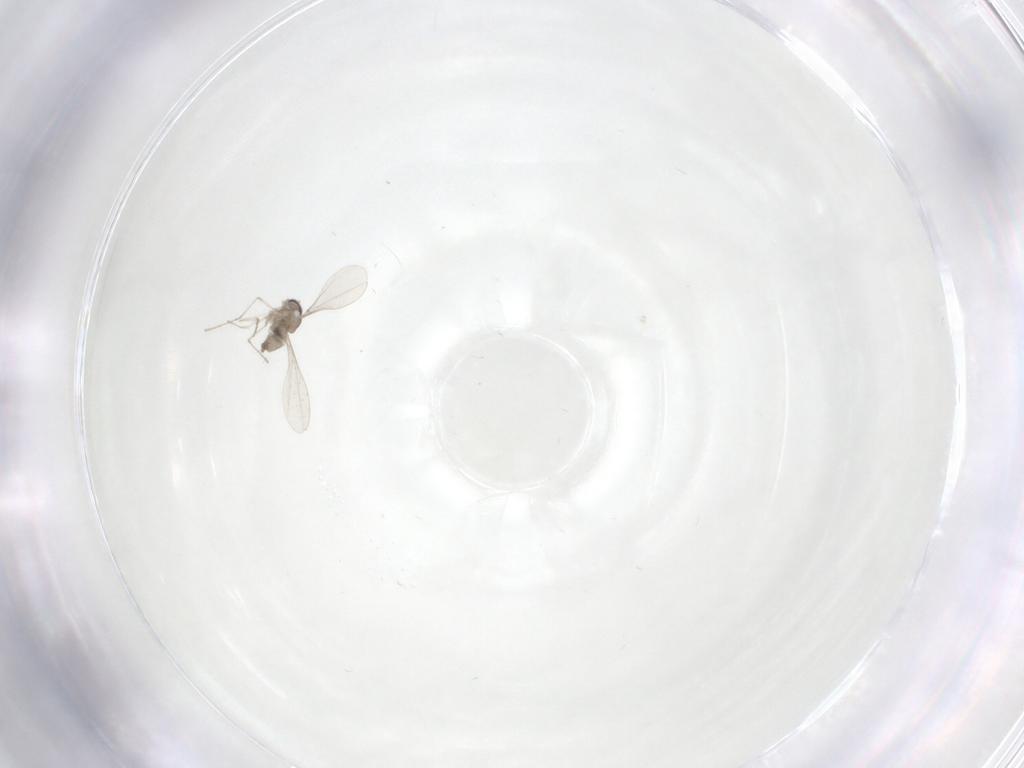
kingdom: Animalia
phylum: Arthropoda
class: Insecta
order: Diptera
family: Cecidomyiidae
